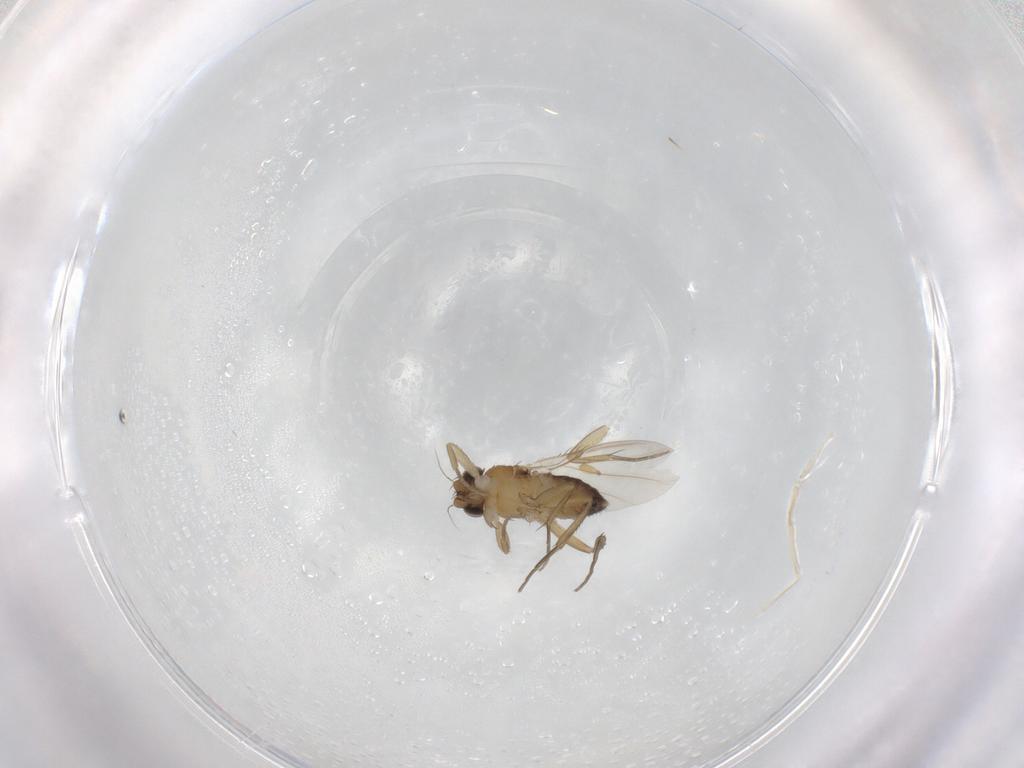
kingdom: Animalia
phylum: Arthropoda
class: Insecta
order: Diptera
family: Phoridae
